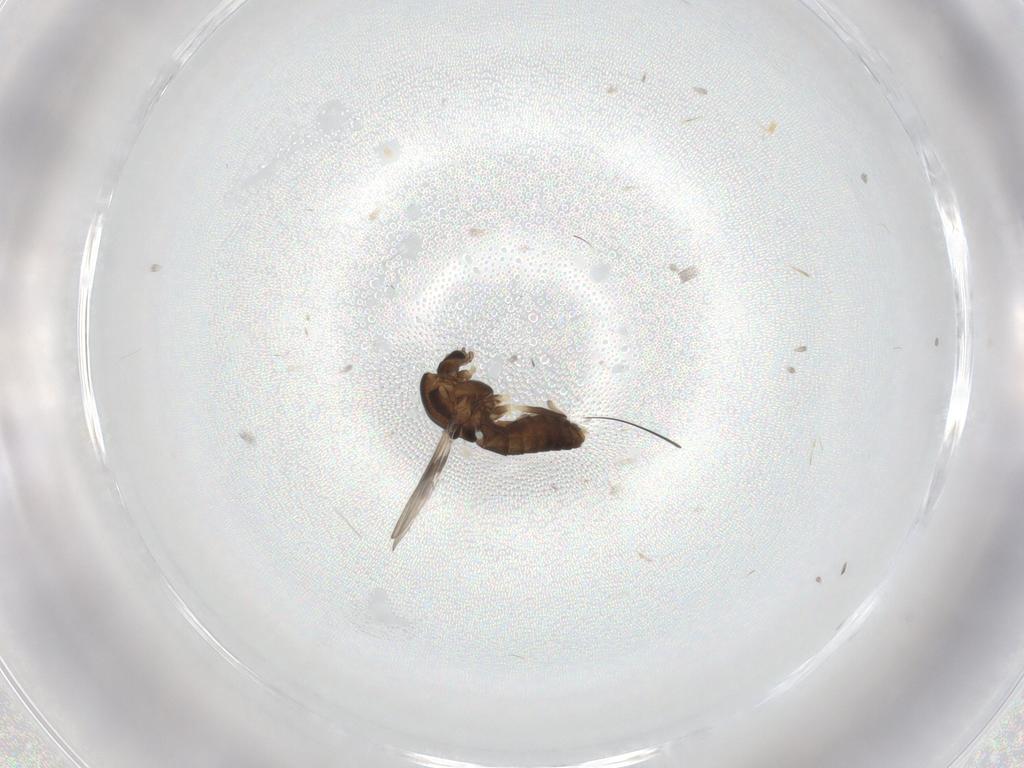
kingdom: Animalia
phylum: Arthropoda
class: Insecta
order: Diptera
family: Chironomidae
